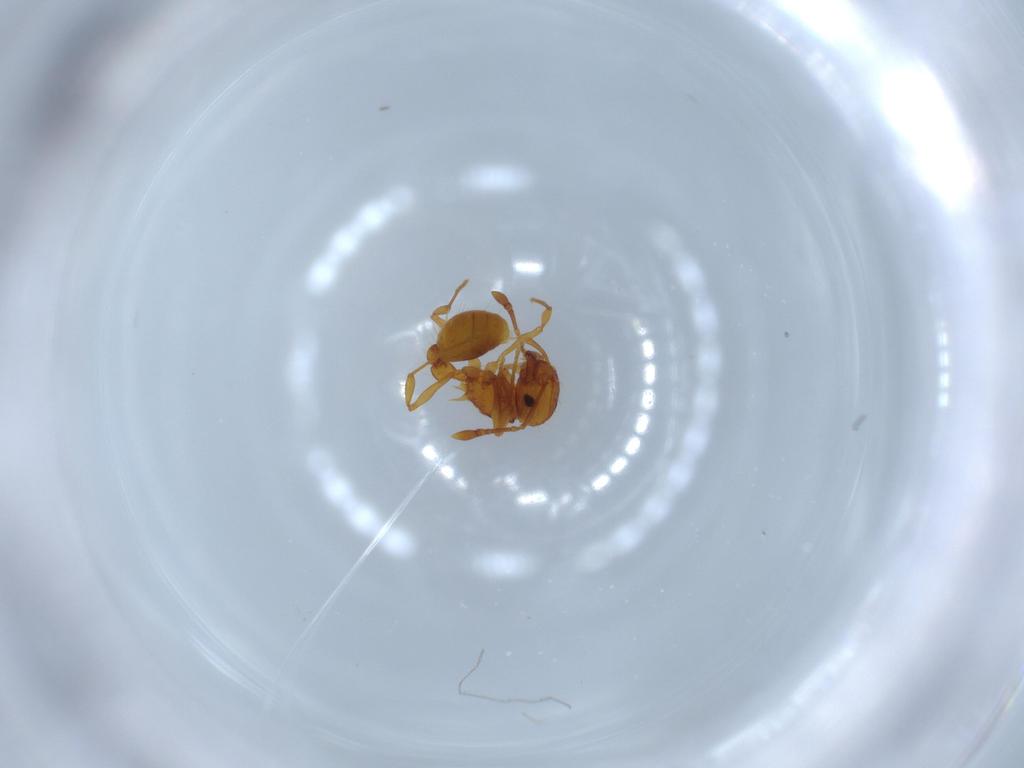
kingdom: Animalia
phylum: Arthropoda
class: Insecta
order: Hymenoptera
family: Formicidae
